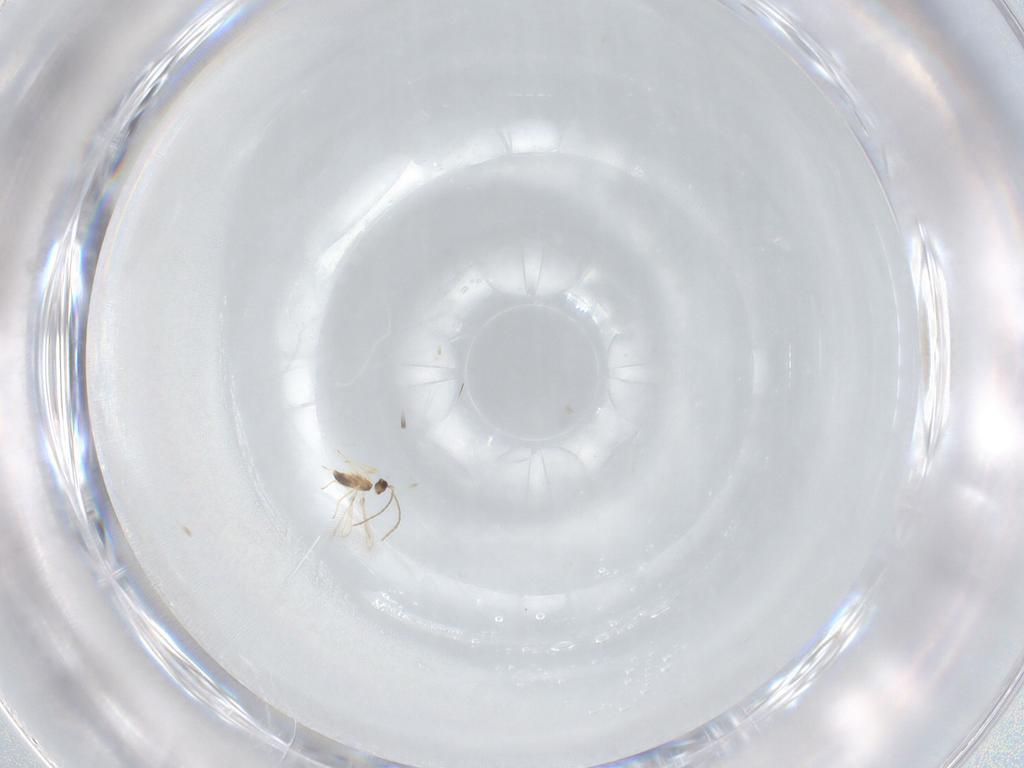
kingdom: Animalia
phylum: Arthropoda
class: Insecta
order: Hymenoptera
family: Mymaridae
